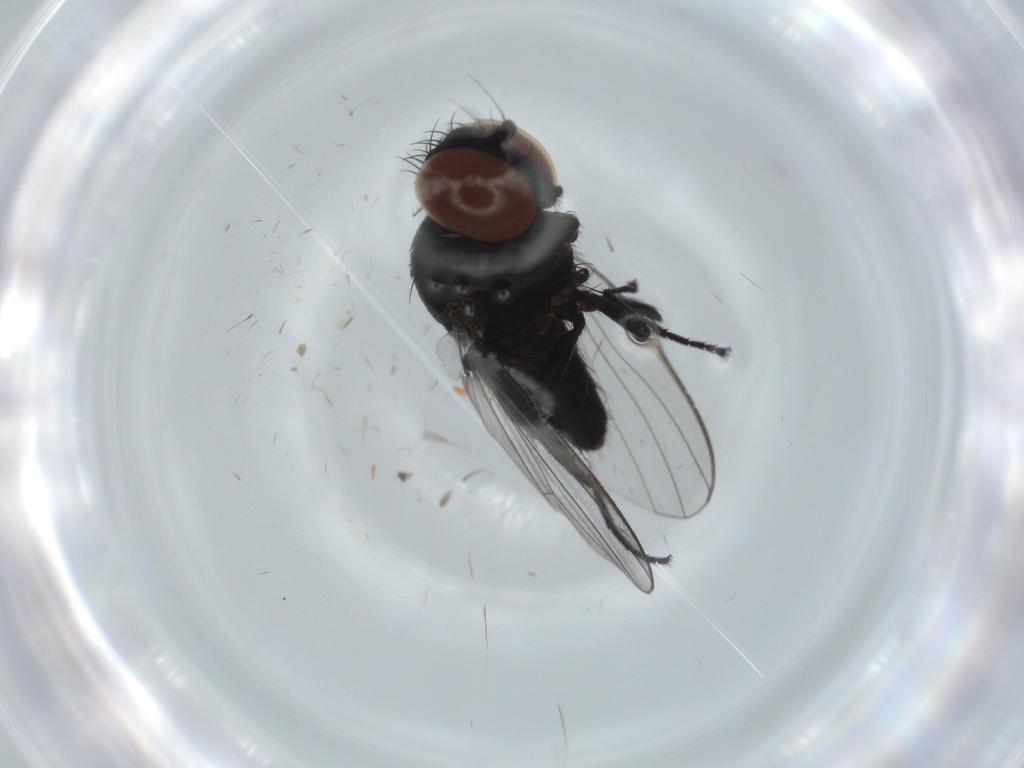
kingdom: Animalia
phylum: Arthropoda
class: Insecta
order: Diptera
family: Milichiidae
